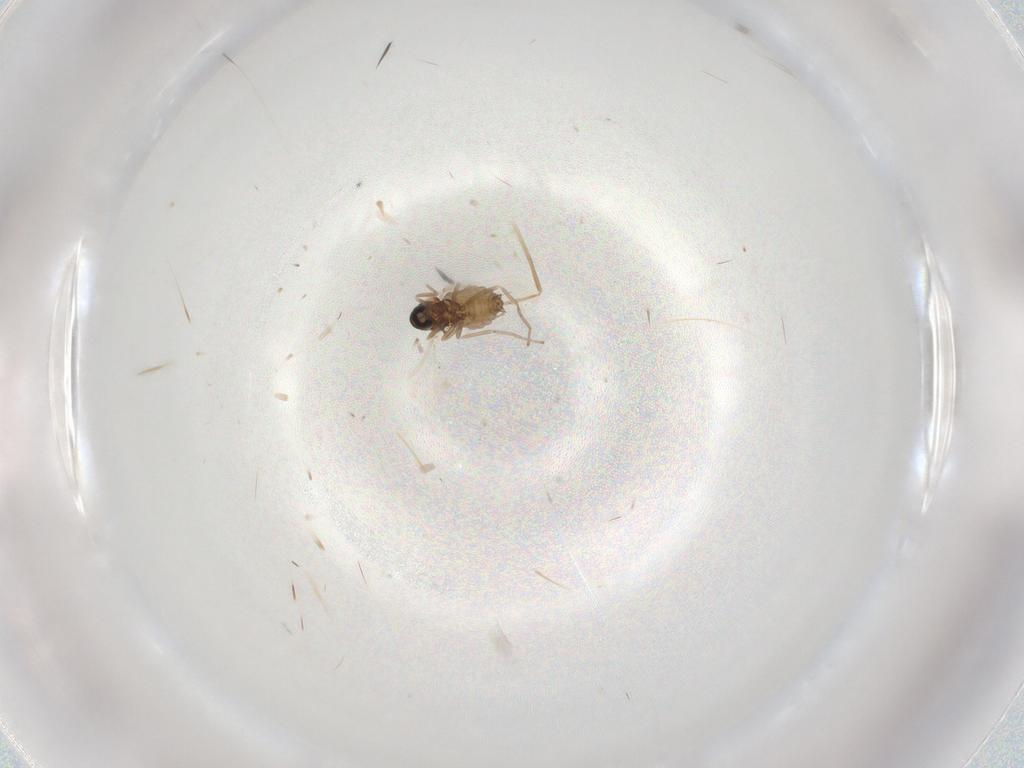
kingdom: Animalia
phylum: Arthropoda
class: Insecta
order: Diptera
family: Cecidomyiidae
